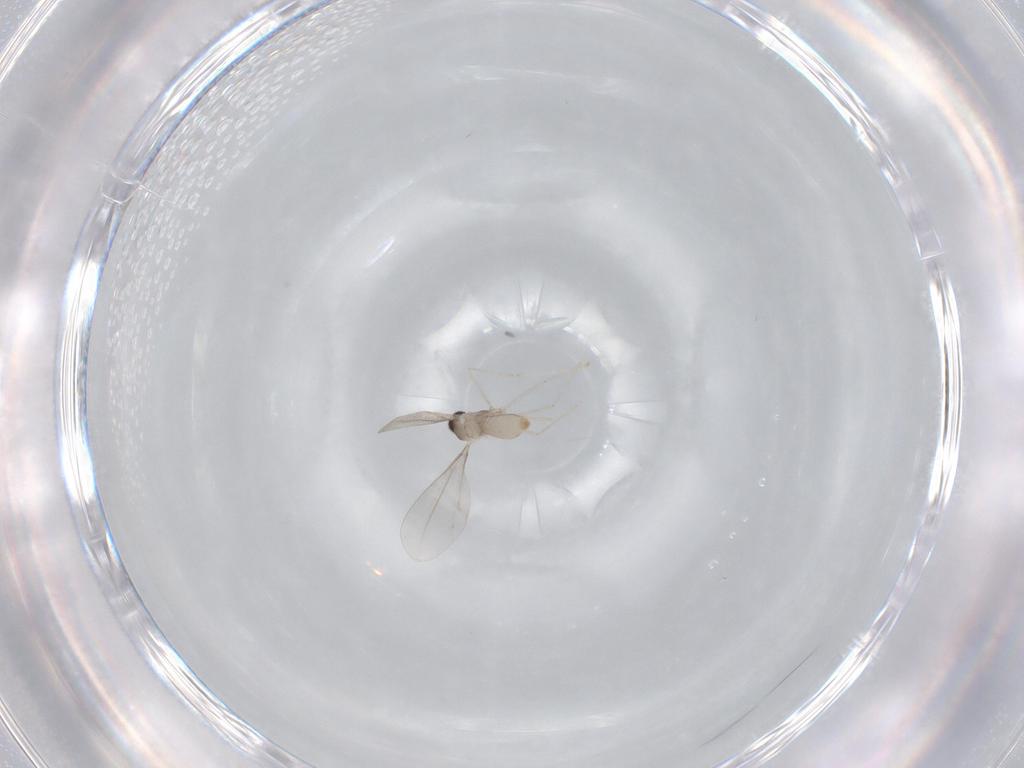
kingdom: Animalia
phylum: Arthropoda
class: Insecta
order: Diptera
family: Cecidomyiidae
